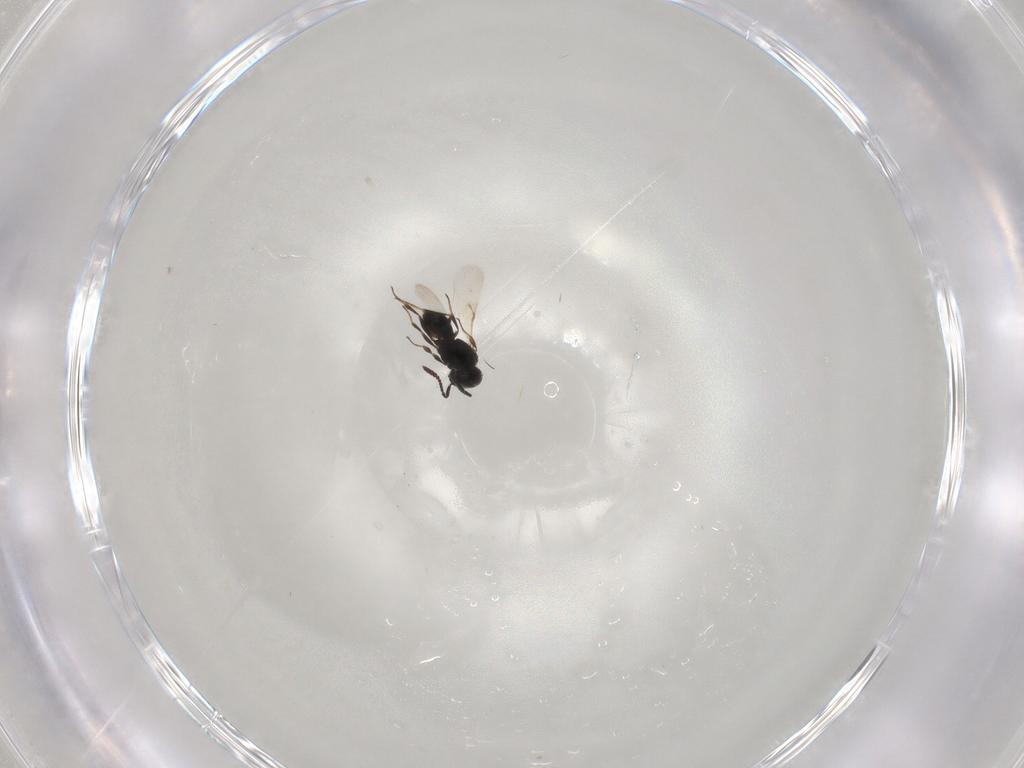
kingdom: Animalia
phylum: Arthropoda
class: Insecta
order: Hymenoptera
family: Scelionidae
